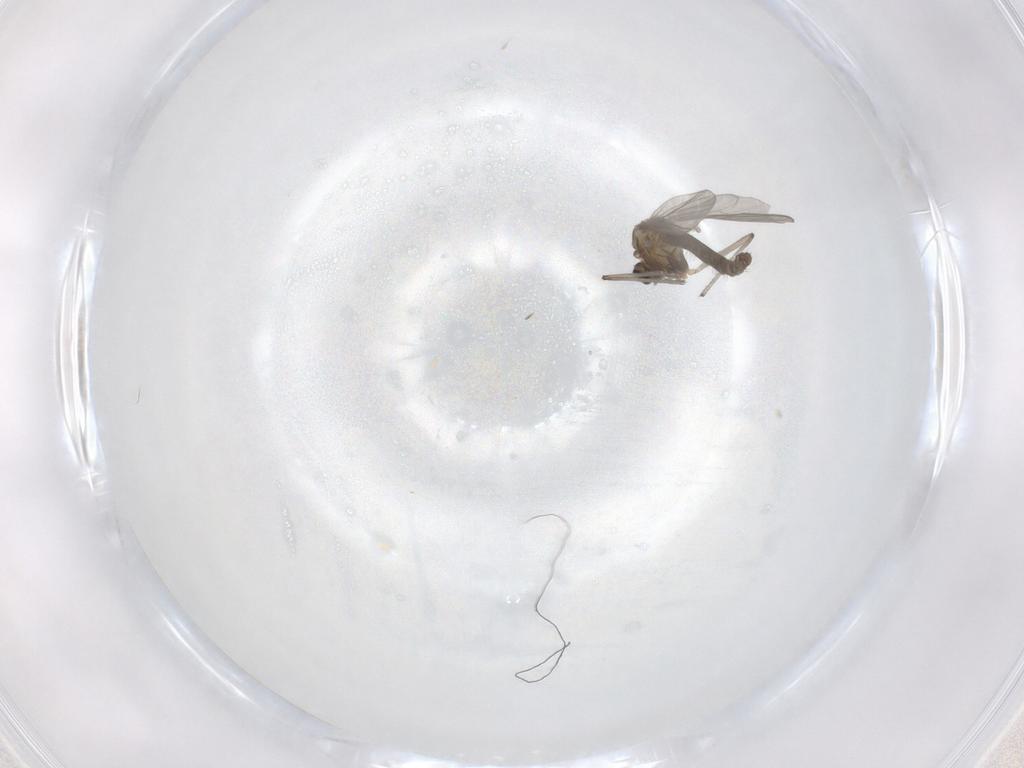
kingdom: Animalia
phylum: Arthropoda
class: Insecta
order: Diptera
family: Chironomidae
